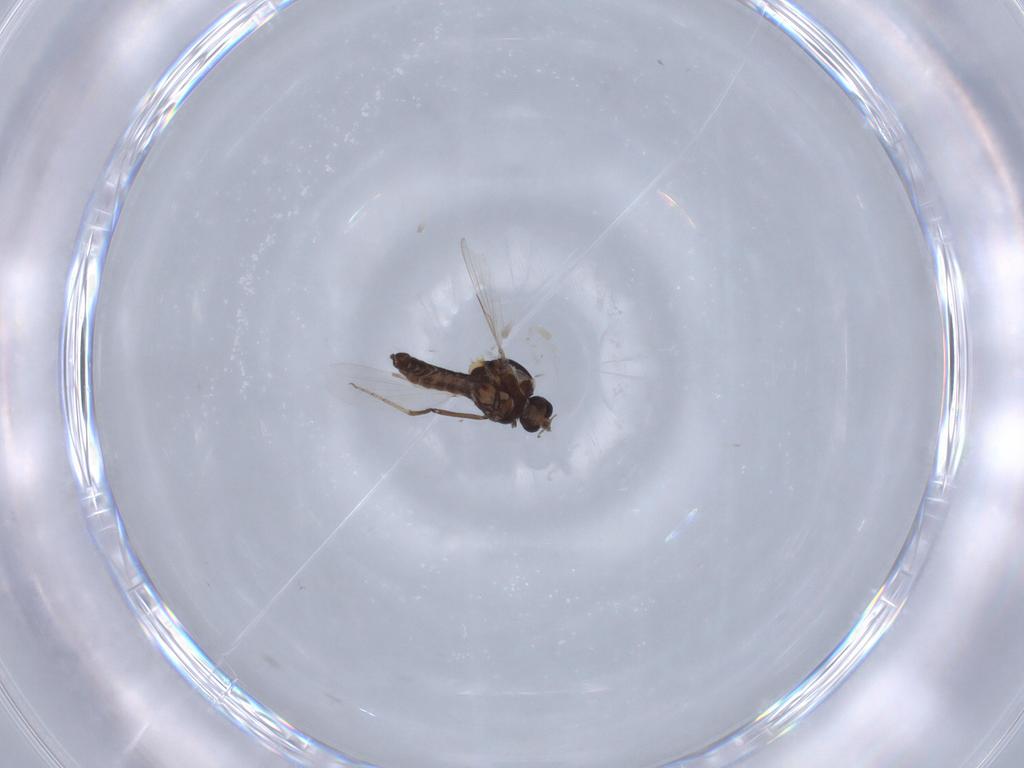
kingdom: Animalia
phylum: Arthropoda
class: Insecta
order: Diptera
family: Ceratopogonidae
